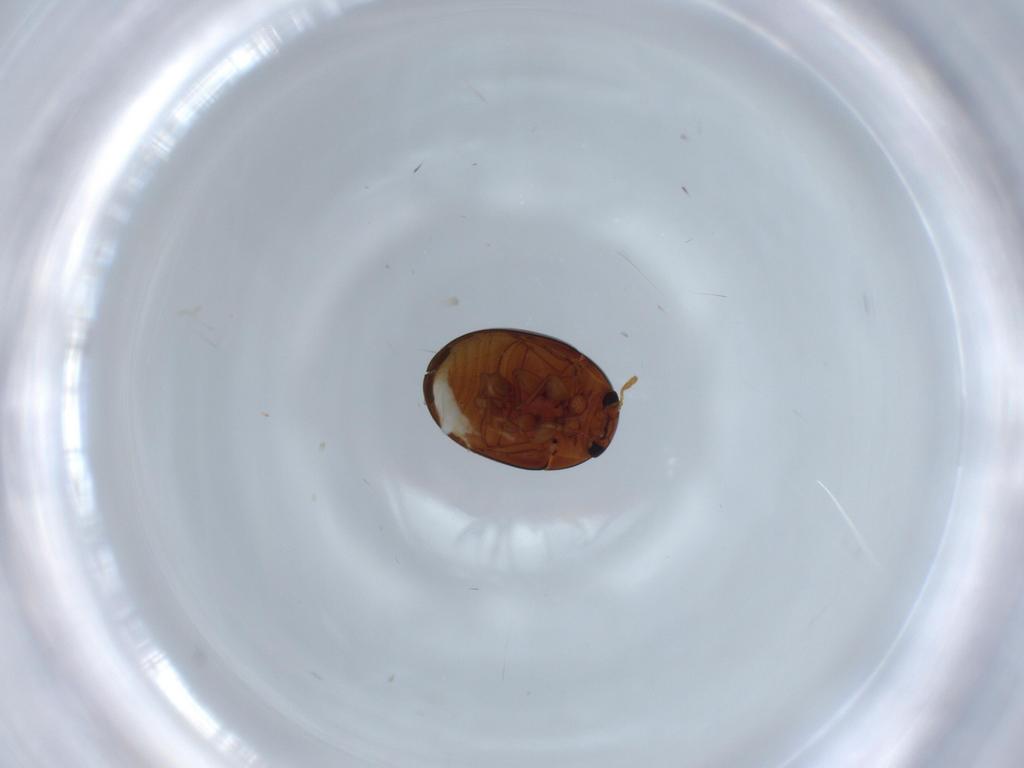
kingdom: Animalia
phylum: Arthropoda
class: Insecta
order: Coleoptera
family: Phalacridae
